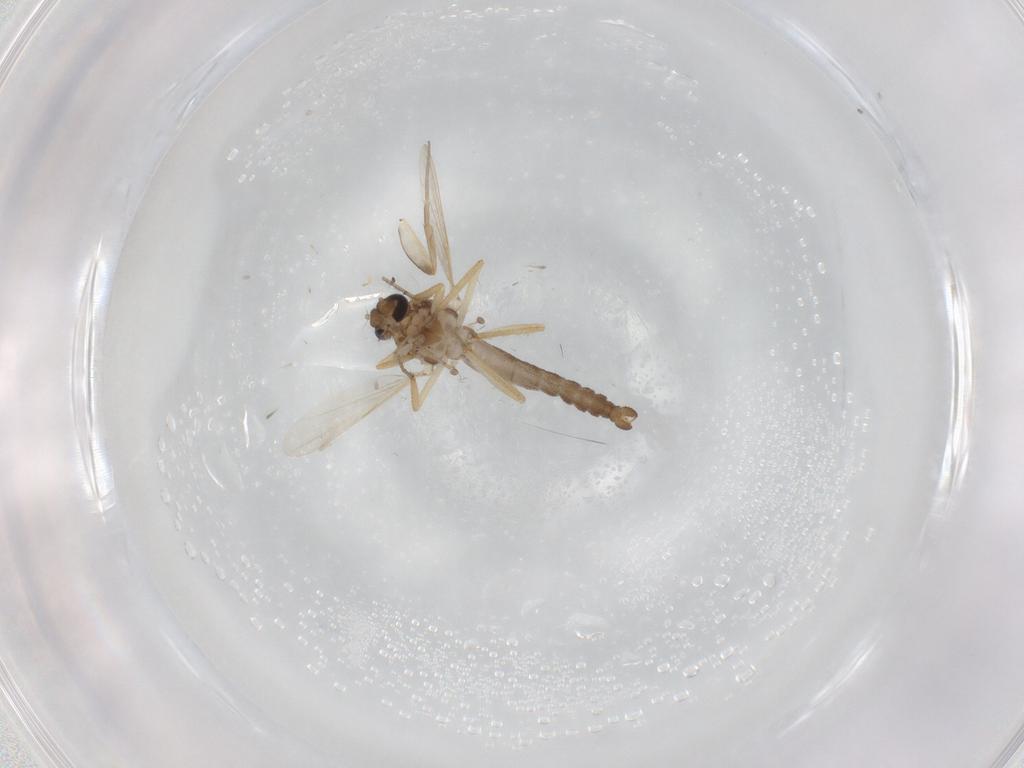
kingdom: Animalia
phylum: Arthropoda
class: Insecta
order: Diptera
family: Ceratopogonidae
